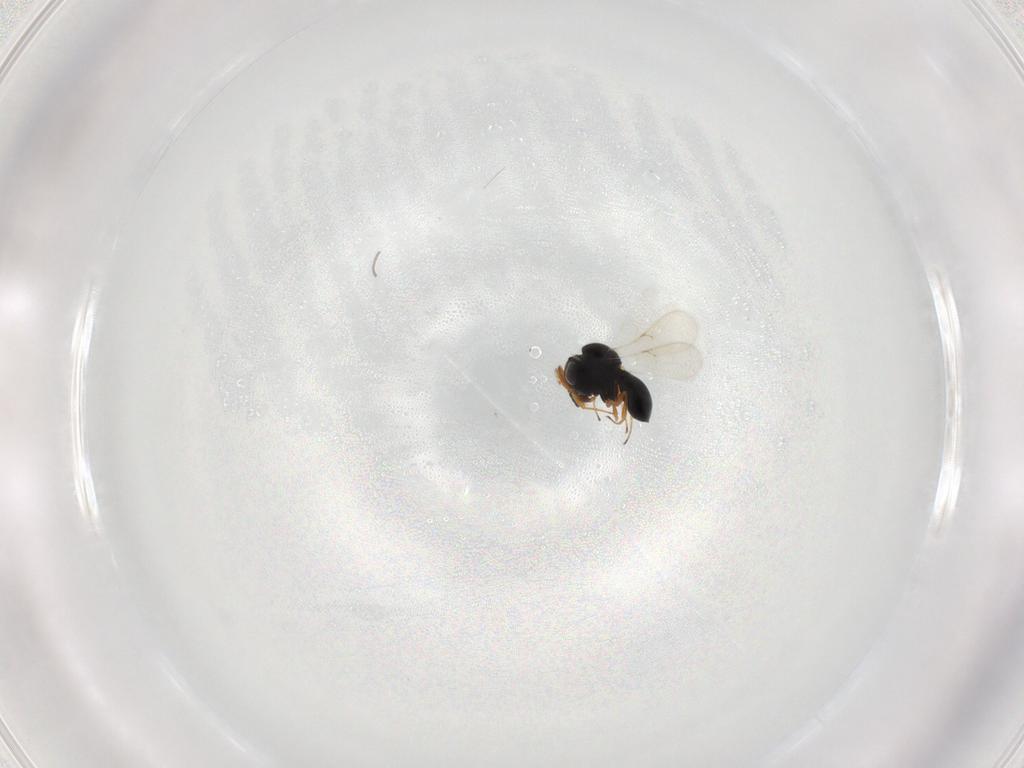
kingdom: Animalia
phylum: Arthropoda
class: Insecta
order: Hymenoptera
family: Scelionidae
